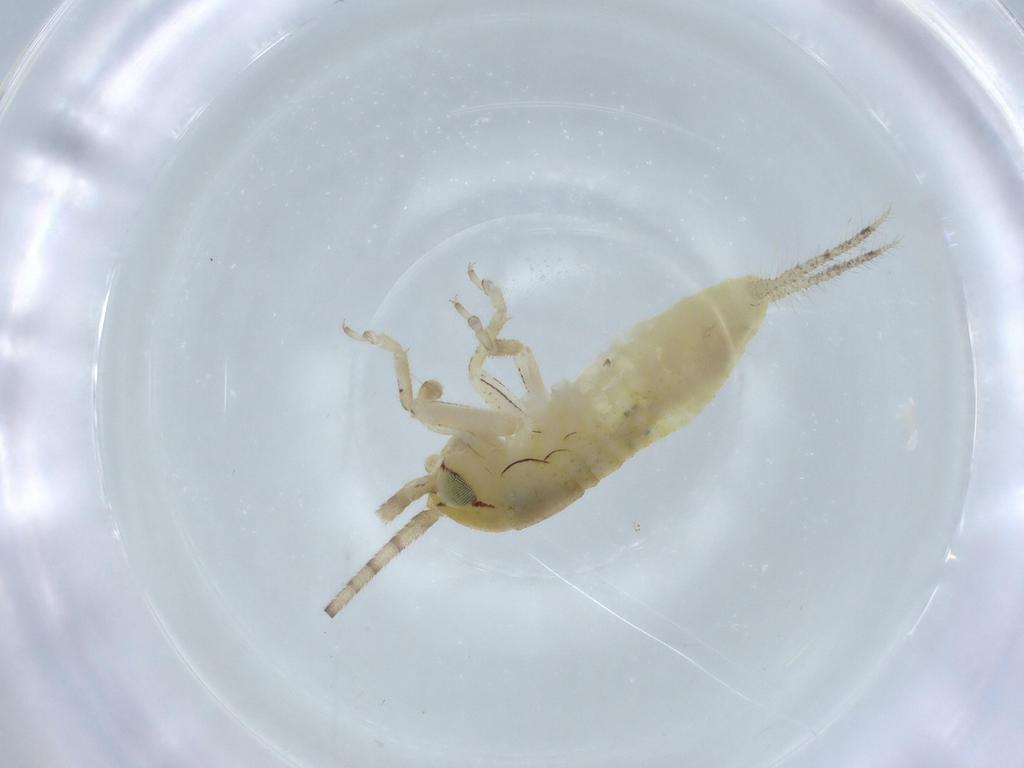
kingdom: Animalia
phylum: Arthropoda
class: Insecta
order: Orthoptera
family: Gryllidae
